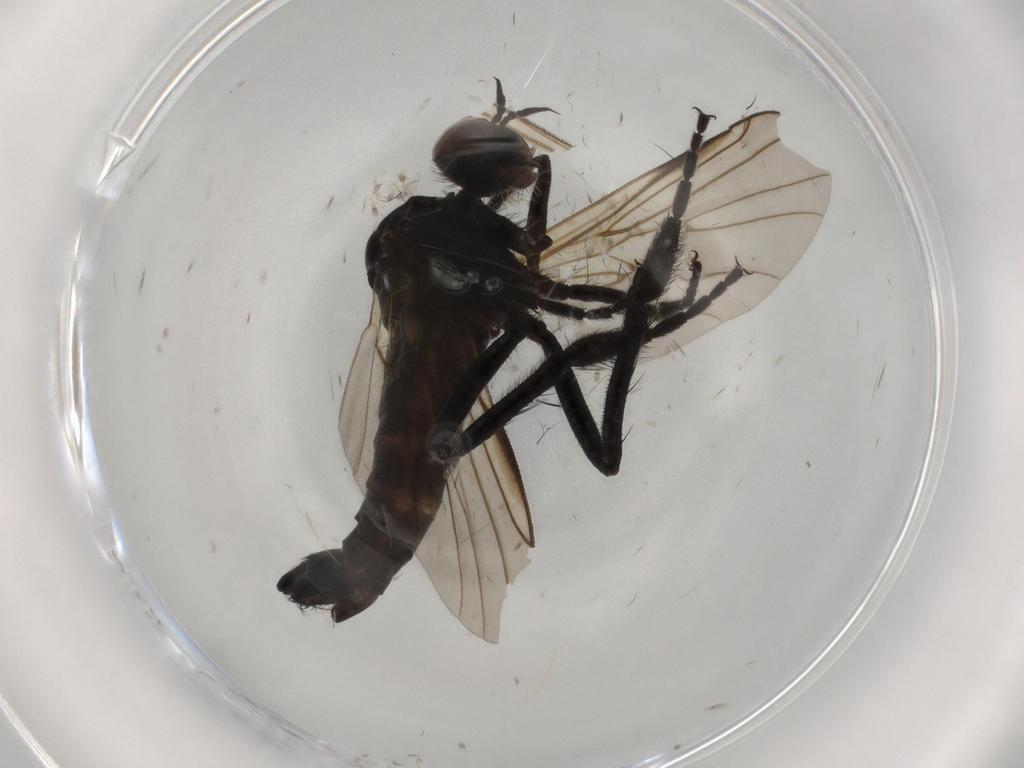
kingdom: Animalia
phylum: Arthropoda
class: Insecta
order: Diptera
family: Empididae
